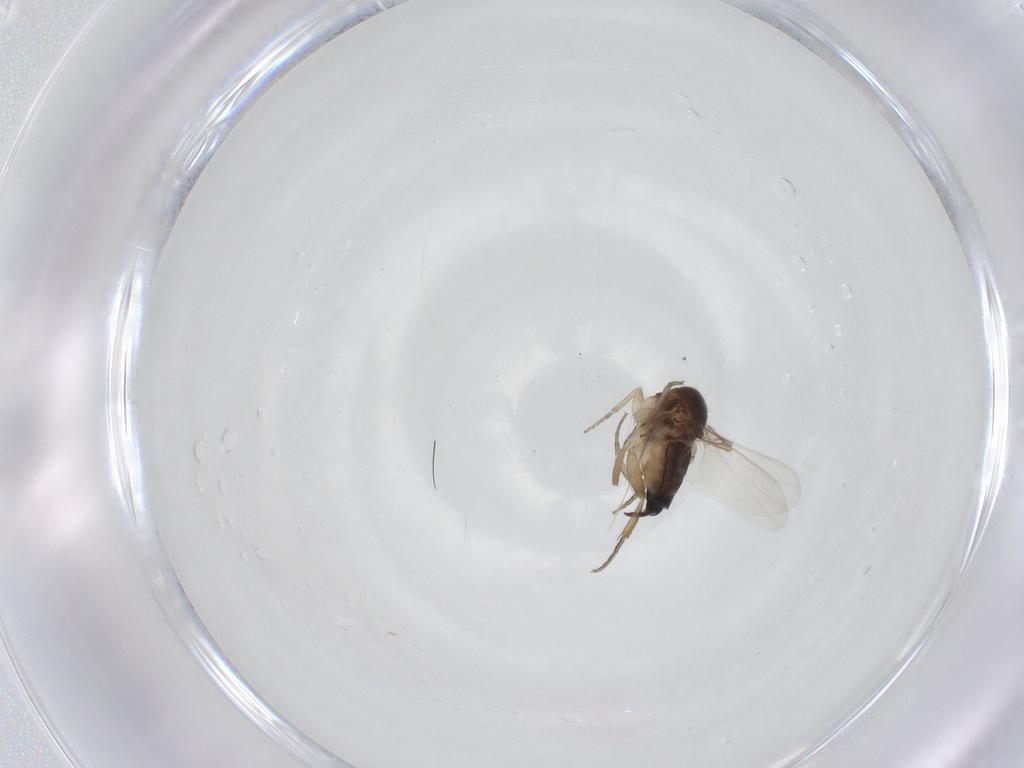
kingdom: Animalia
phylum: Arthropoda
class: Insecta
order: Diptera
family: Phoridae
